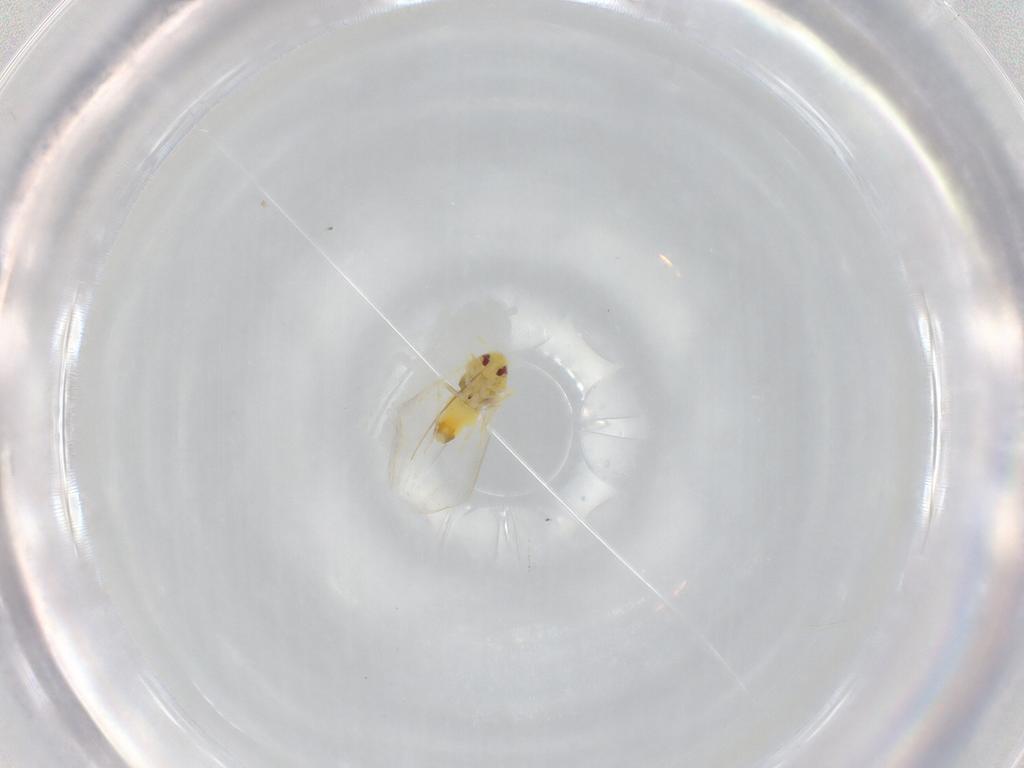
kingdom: Animalia
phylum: Arthropoda
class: Insecta
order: Hemiptera
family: Aleyrodidae
